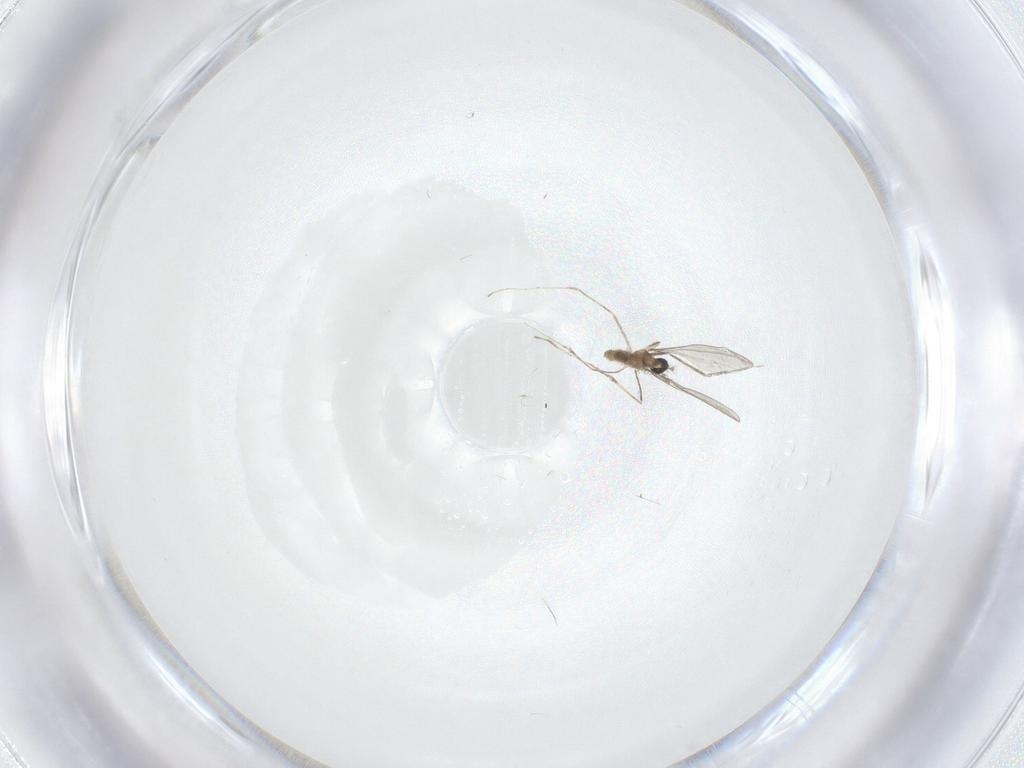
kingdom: Animalia
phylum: Arthropoda
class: Insecta
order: Diptera
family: Cecidomyiidae
